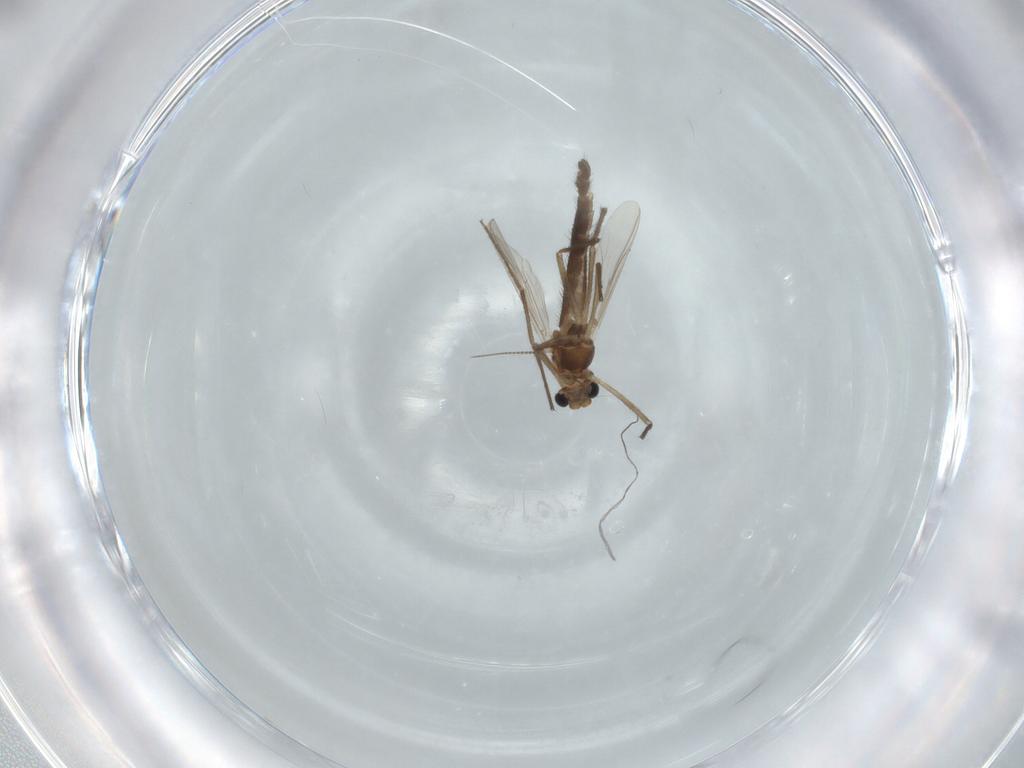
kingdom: Animalia
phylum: Arthropoda
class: Insecta
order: Diptera
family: Chironomidae
